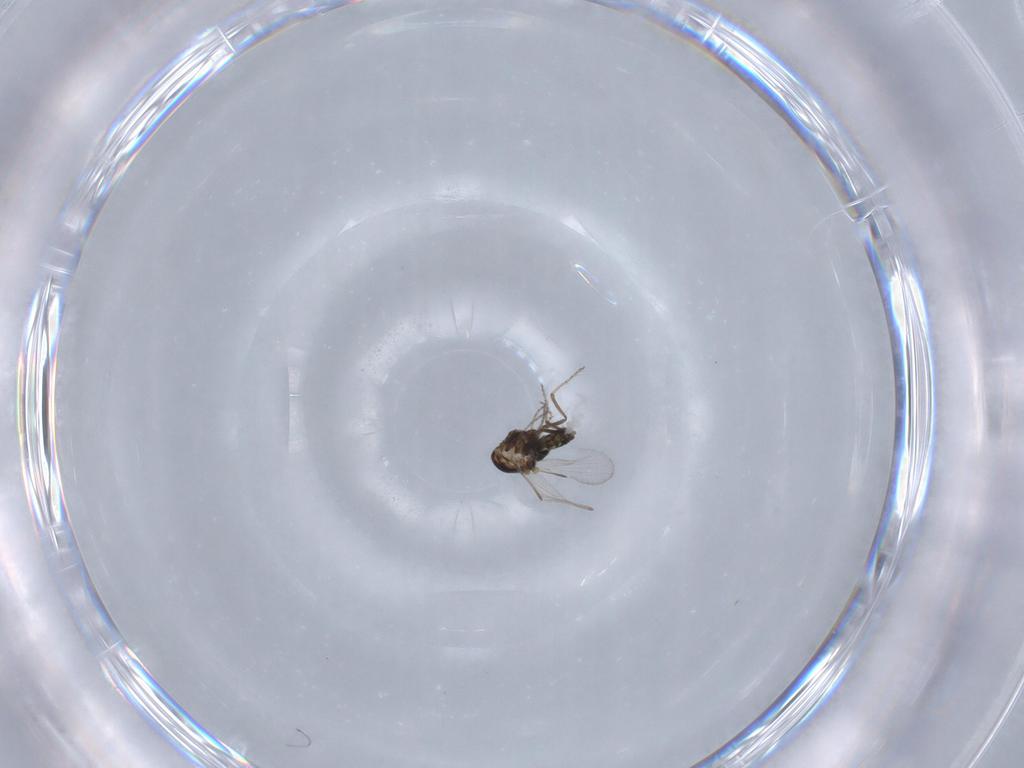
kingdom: Animalia
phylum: Arthropoda
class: Insecta
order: Diptera
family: Ceratopogonidae
